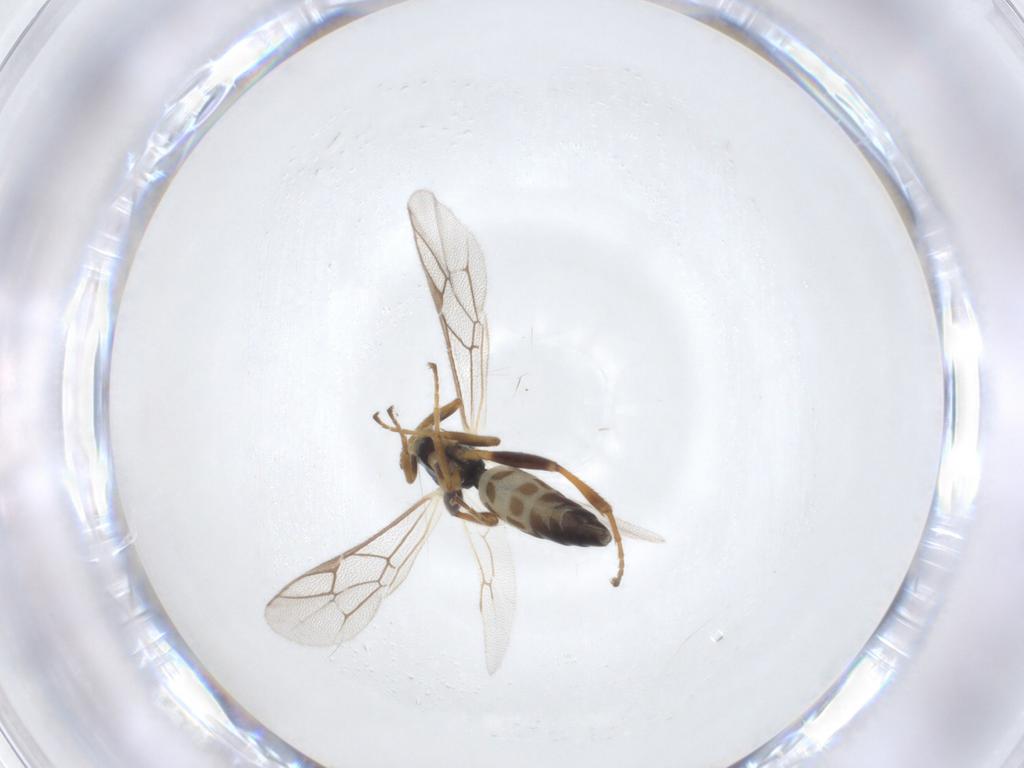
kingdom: Animalia
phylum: Arthropoda
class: Insecta
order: Hymenoptera
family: Ichneumonidae
